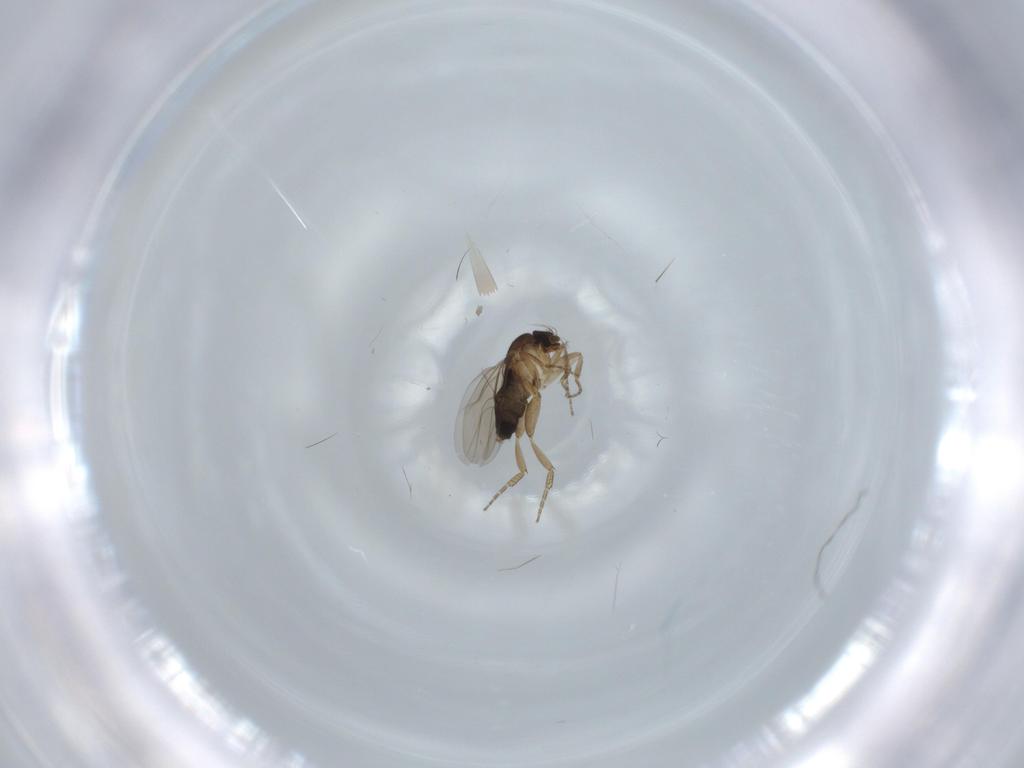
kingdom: Animalia
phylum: Arthropoda
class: Insecta
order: Diptera
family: Phoridae
